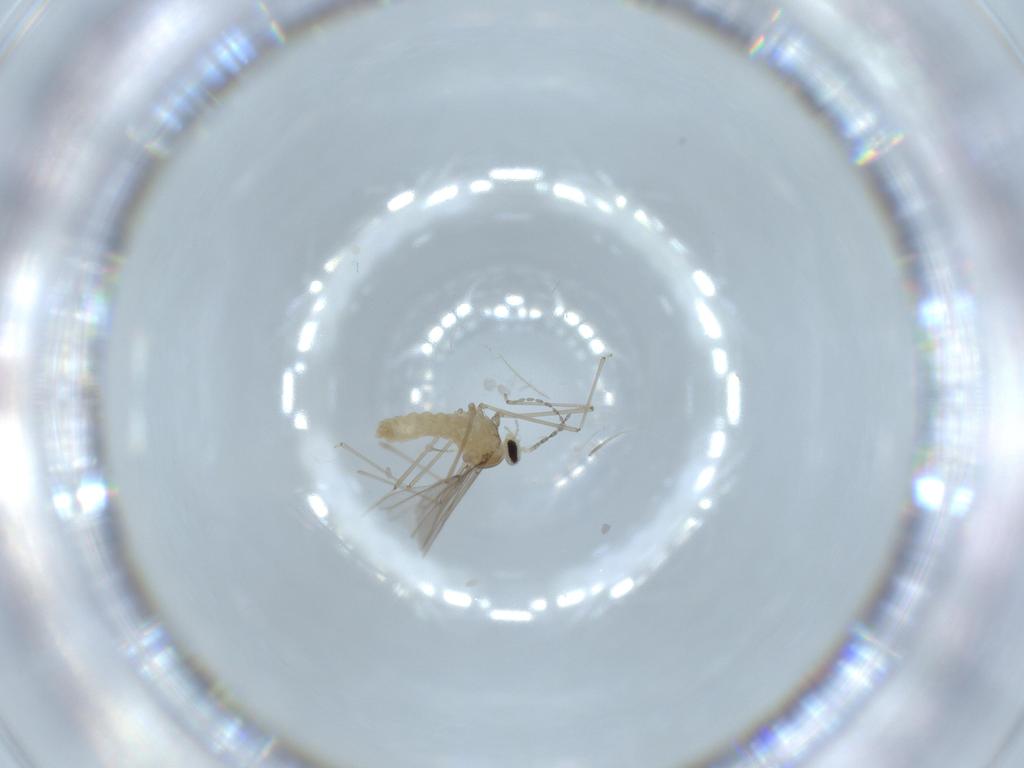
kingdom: Animalia
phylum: Arthropoda
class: Insecta
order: Diptera
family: Cecidomyiidae
